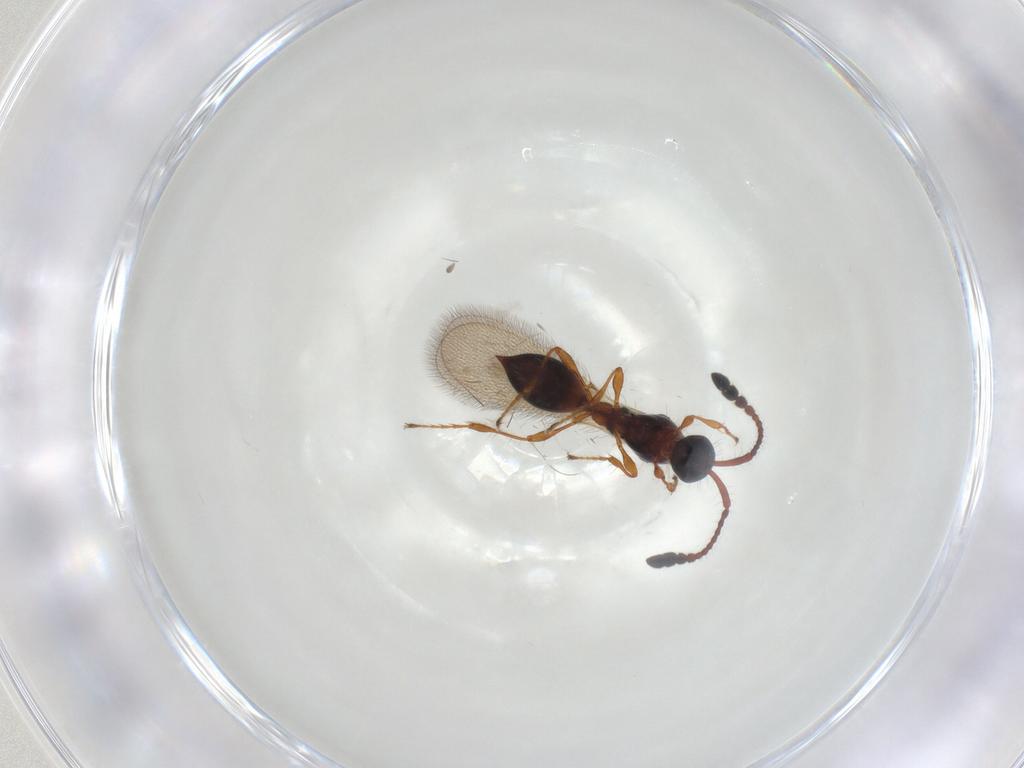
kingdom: Animalia
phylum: Arthropoda
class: Insecta
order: Hymenoptera
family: Diapriidae
